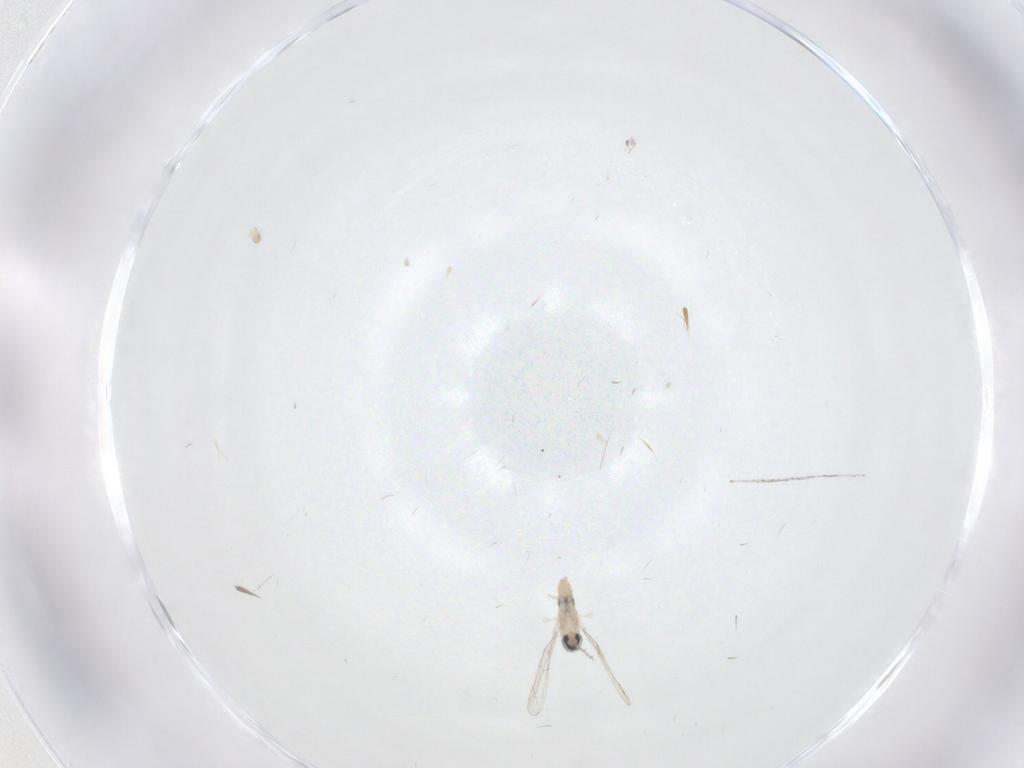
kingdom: Animalia
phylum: Arthropoda
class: Insecta
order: Diptera
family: Cecidomyiidae
